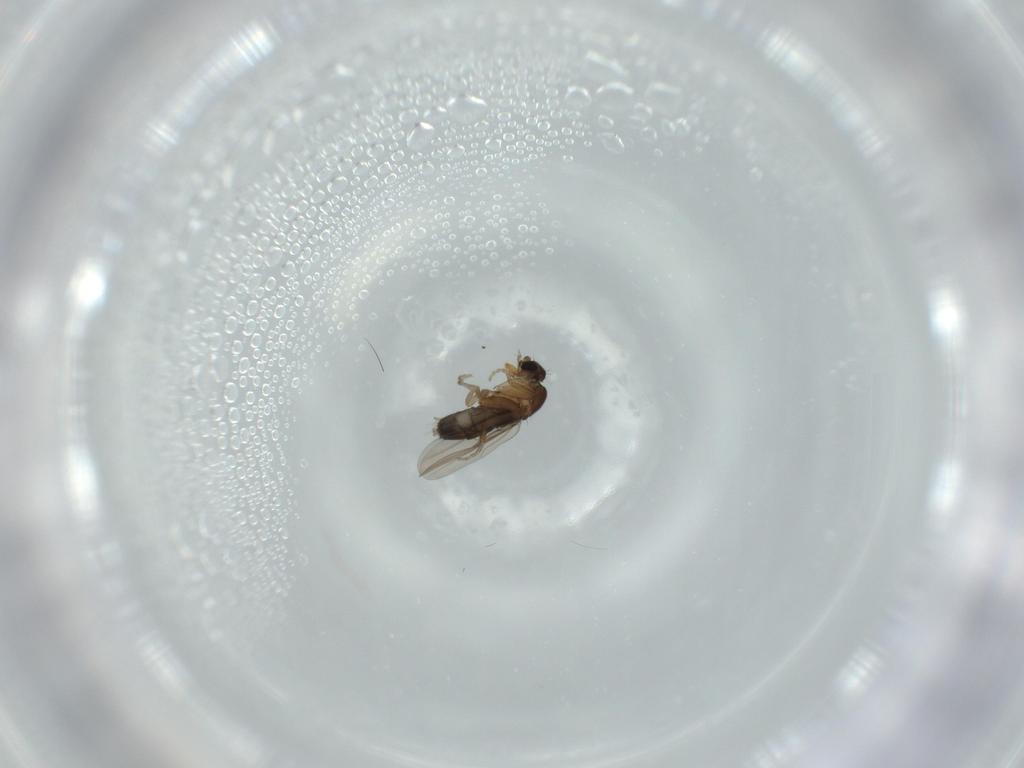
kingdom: Animalia
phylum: Arthropoda
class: Insecta
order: Diptera
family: Phoridae
